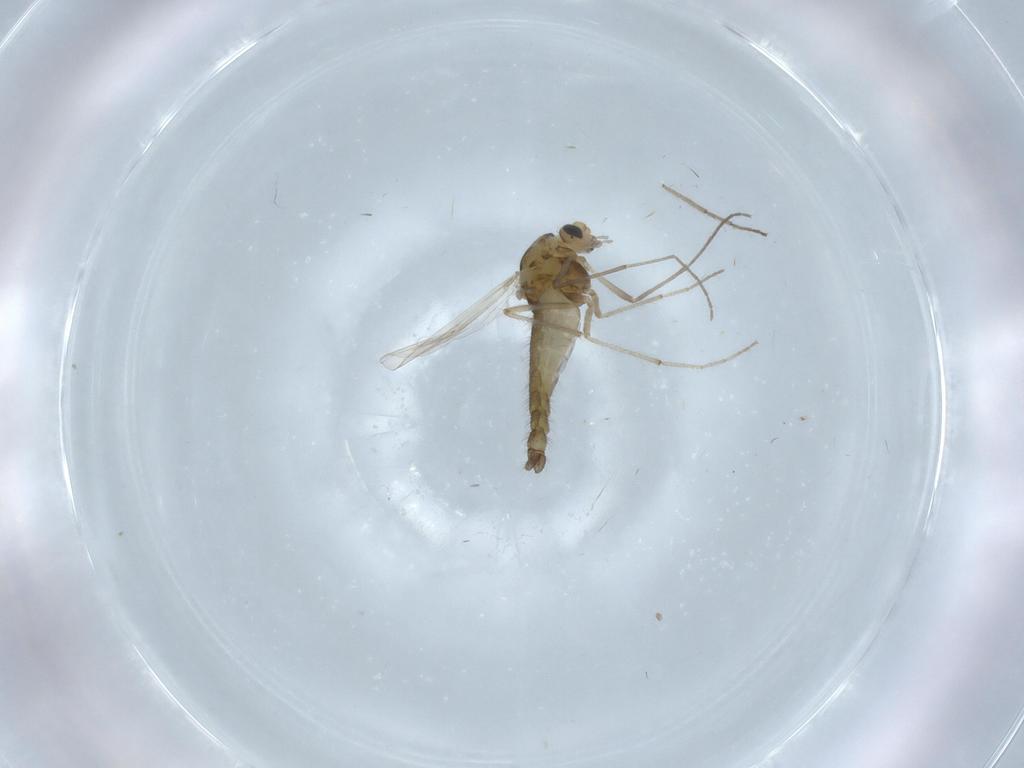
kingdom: Animalia
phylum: Arthropoda
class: Insecta
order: Diptera
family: Chironomidae
